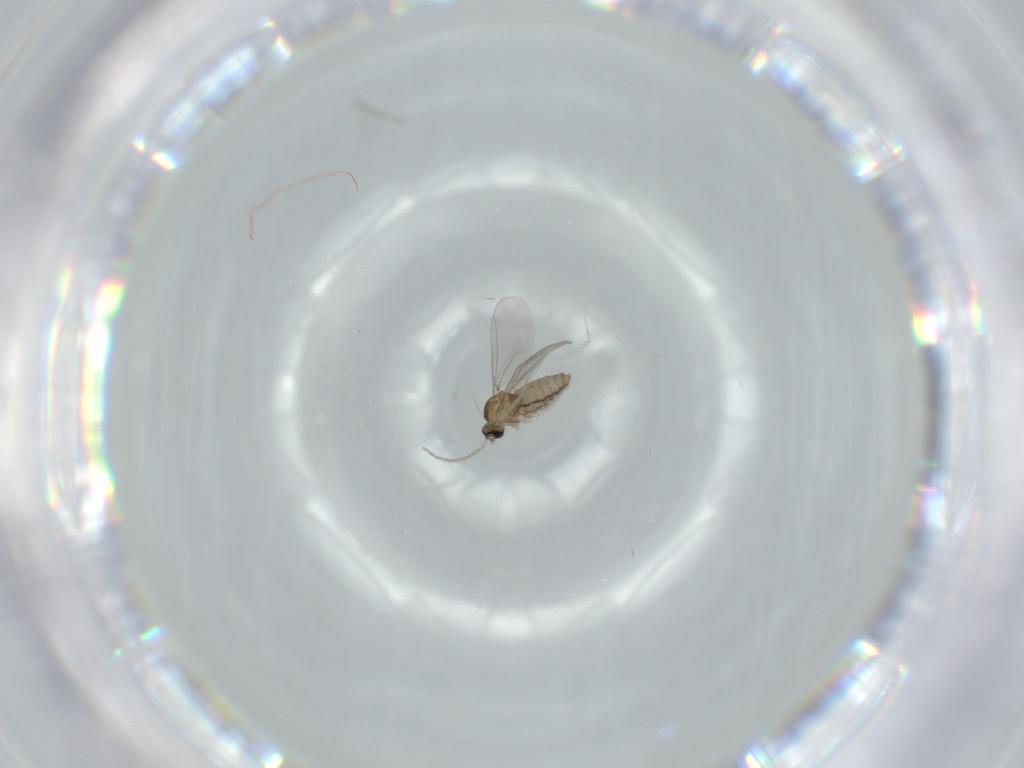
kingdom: Animalia
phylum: Arthropoda
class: Insecta
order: Diptera
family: Cecidomyiidae
